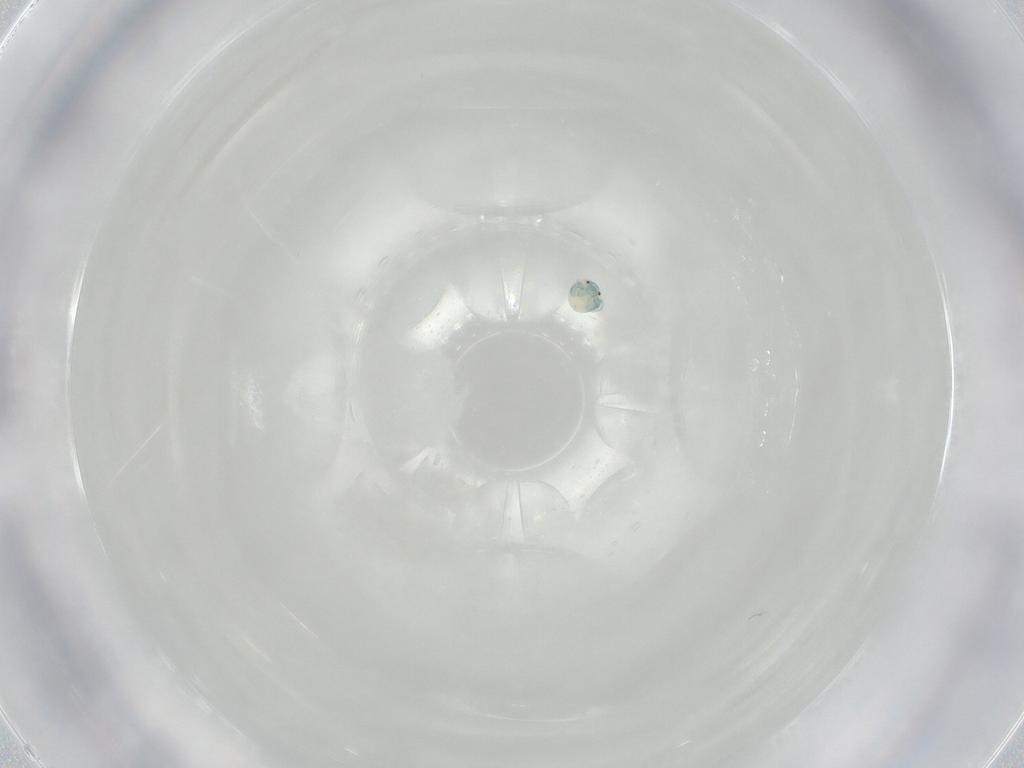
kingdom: Animalia
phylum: Arthropoda
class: Arachnida
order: Trombidiformes
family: Arrenuridae
